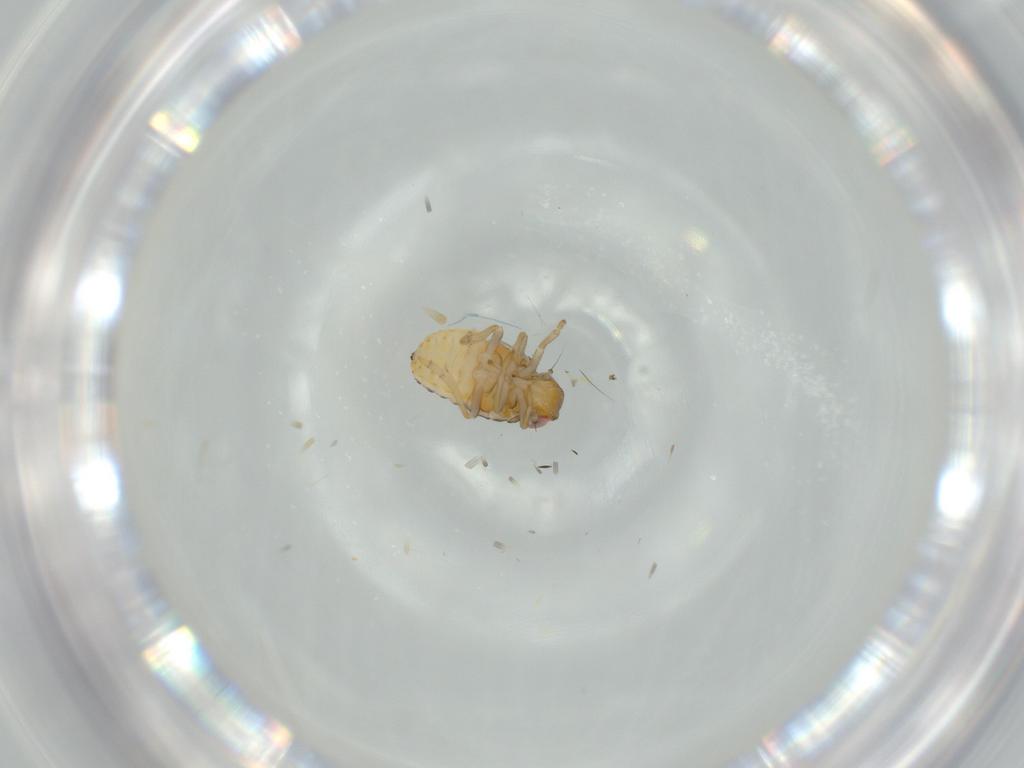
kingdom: Animalia
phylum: Arthropoda
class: Insecta
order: Hemiptera
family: Issidae
